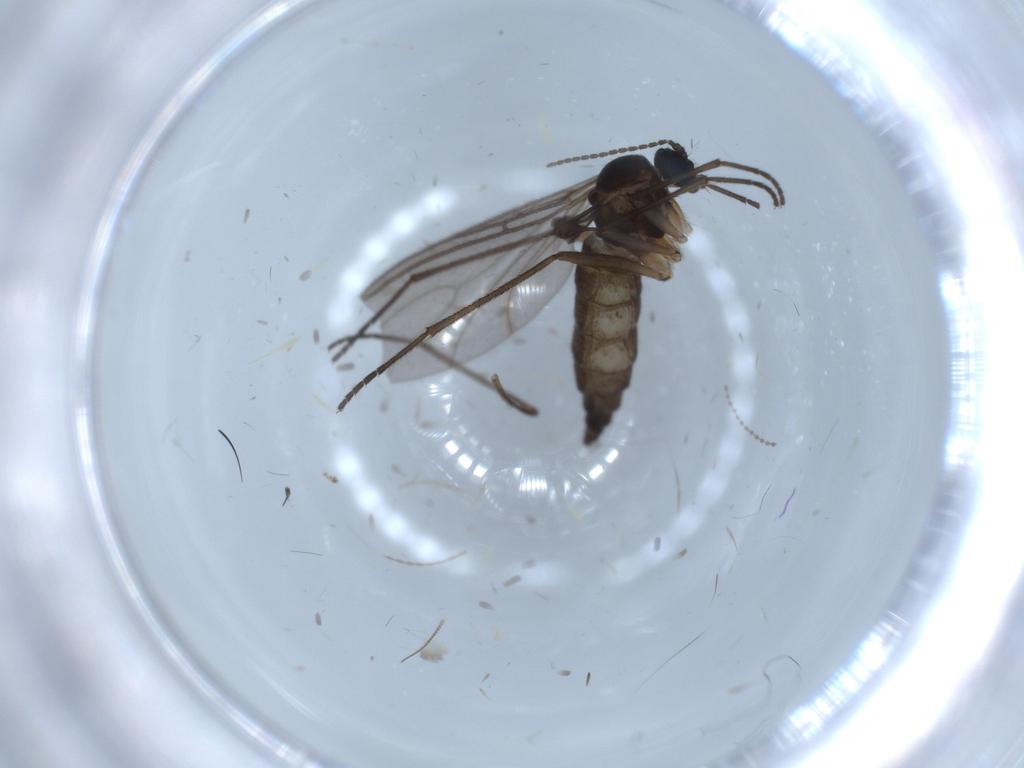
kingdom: Animalia
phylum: Arthropoda
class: Insecta
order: Diptera
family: Sciaridae
